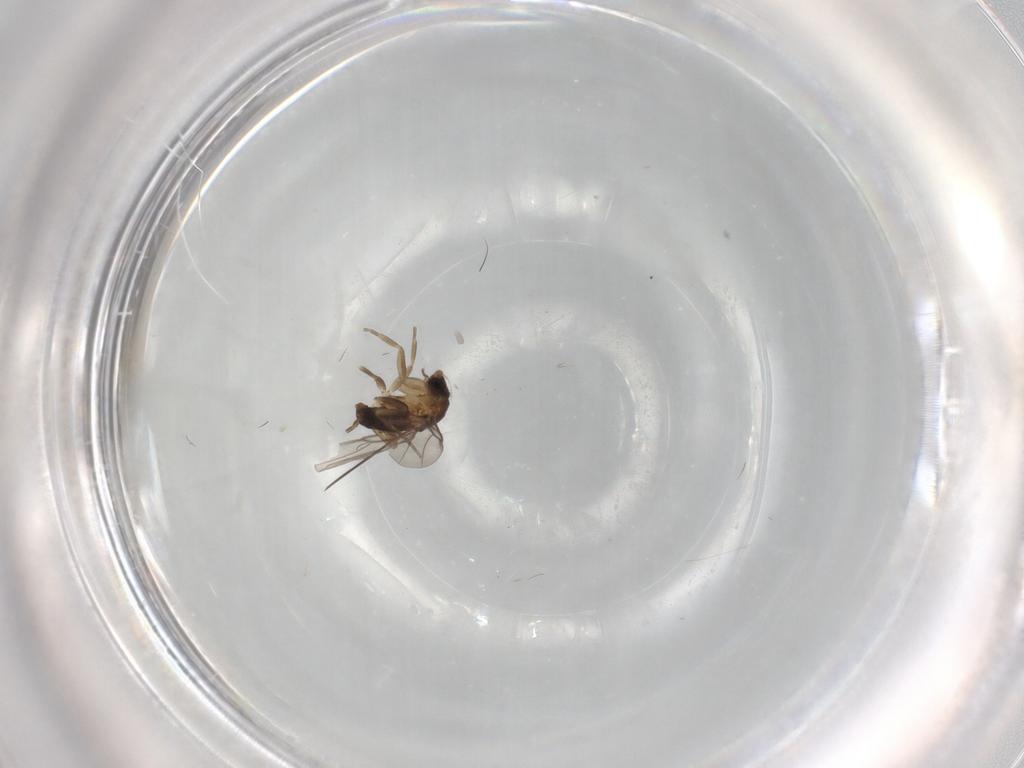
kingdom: Animalia
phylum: Arthropoda
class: Insecta
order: Diptera
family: Phoridae
